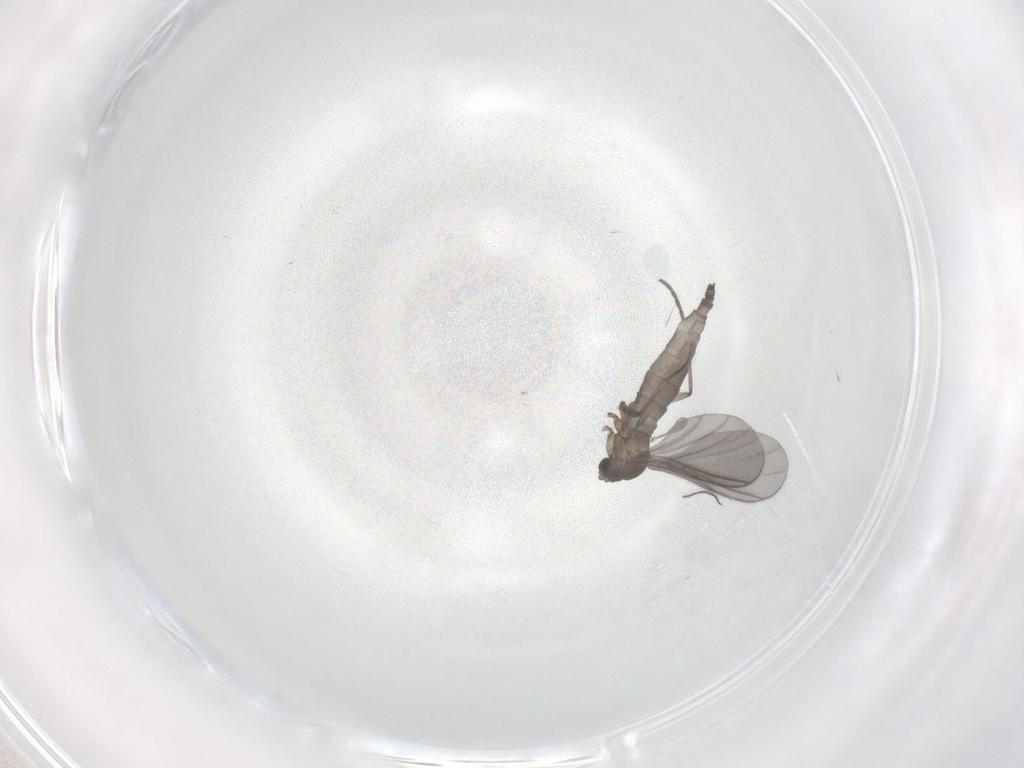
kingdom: Animalia
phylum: Arthropoda
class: Insecta
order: Diptera
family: Sciaridae
